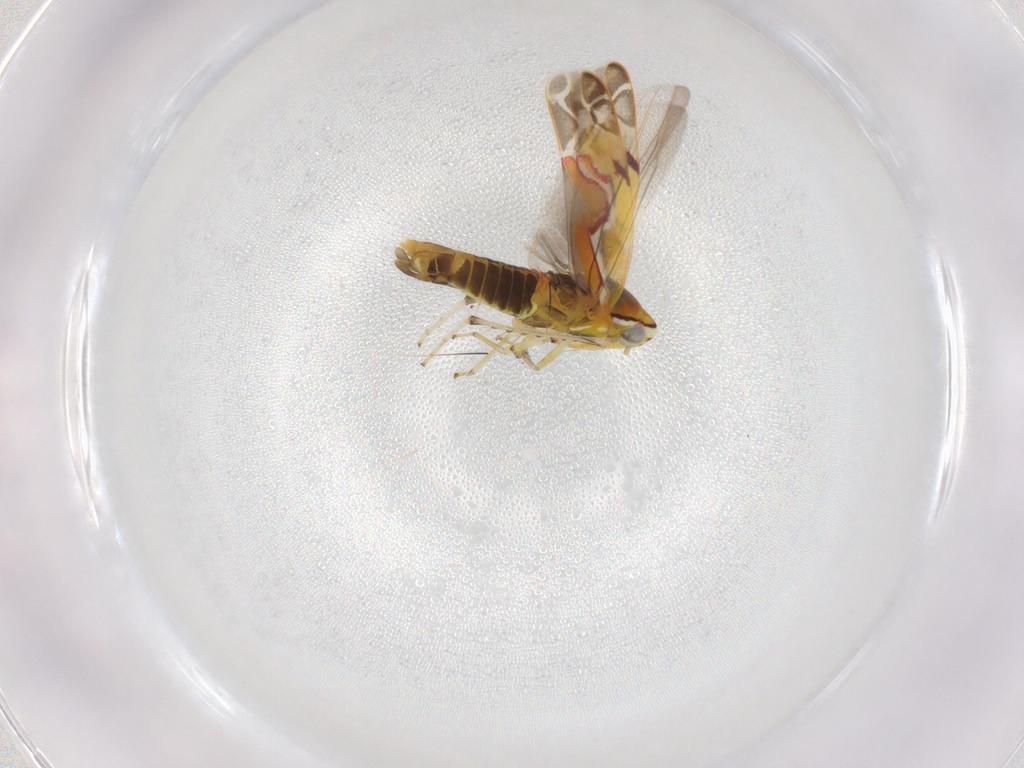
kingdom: Animalia
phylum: Arthropoda
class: Insecta
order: Hemiptera
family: Cicadellidae
